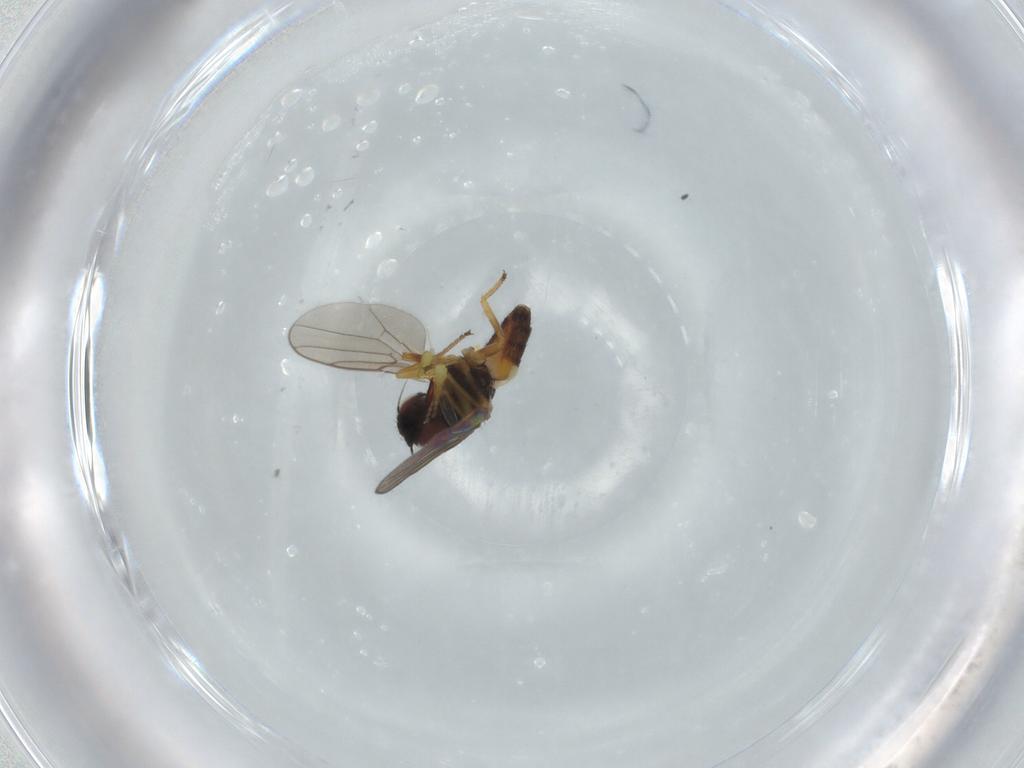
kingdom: Animalia
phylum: Arthropoda
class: Insecta
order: Diptera
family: Chloropidae
